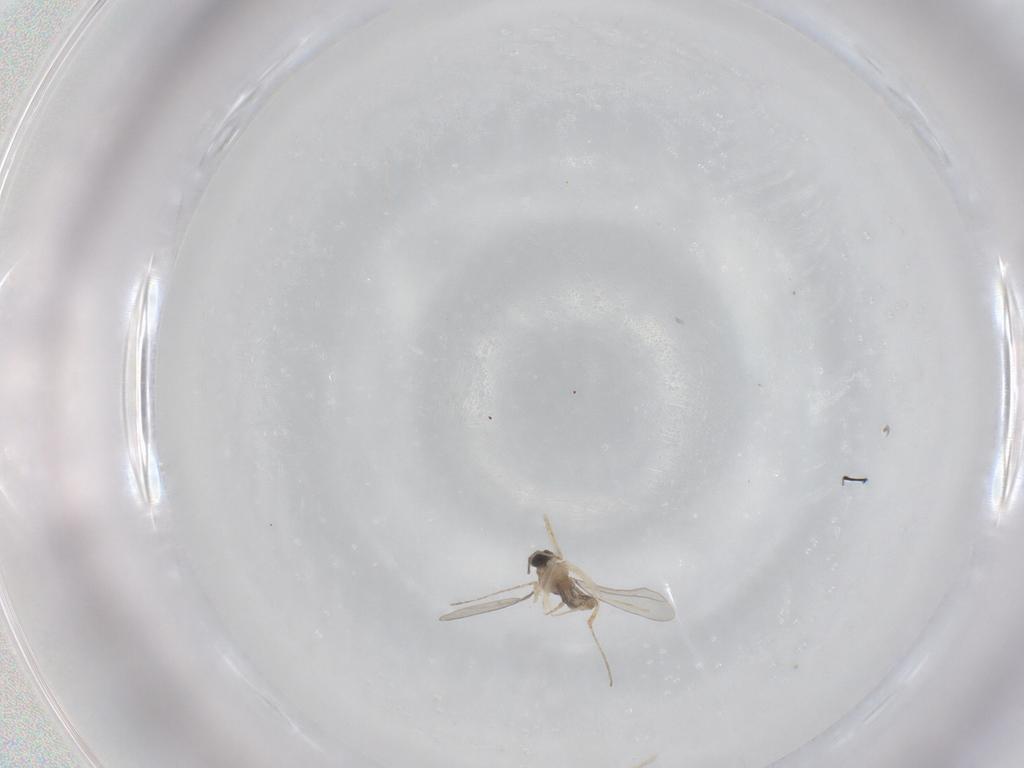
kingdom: Animalia
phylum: Arthropoda
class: Insecta
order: Diptera
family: Cecidomyiidae
